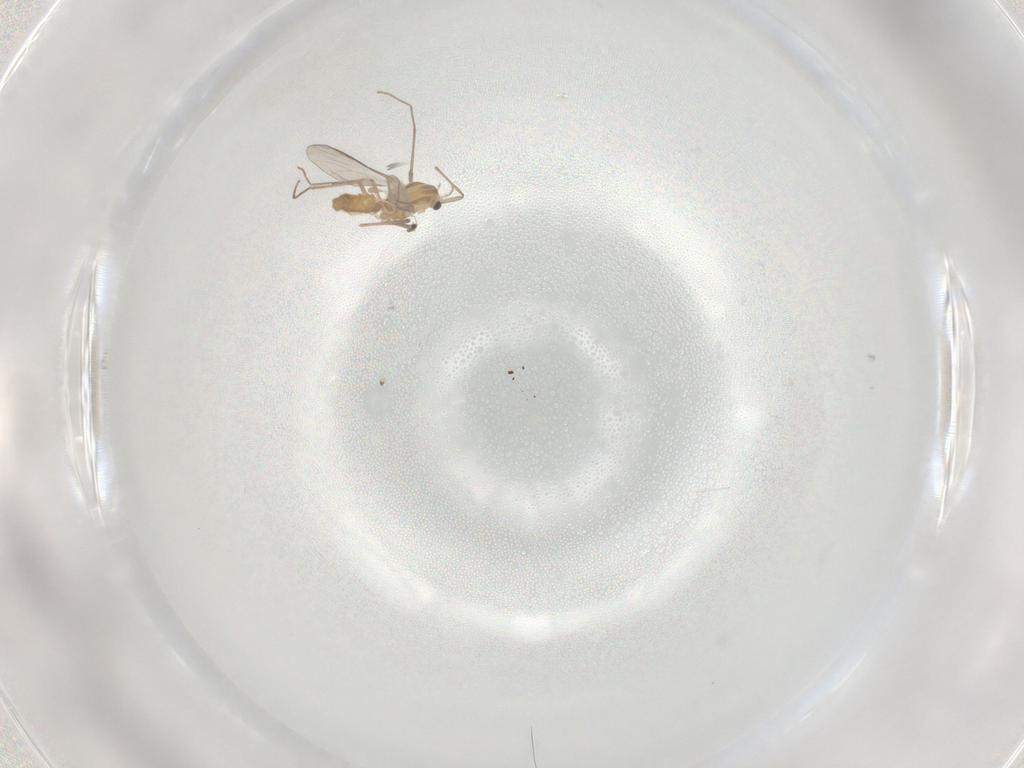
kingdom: Animalia
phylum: Arthropoda
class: Insecta
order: Diptera
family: Chironomidae
